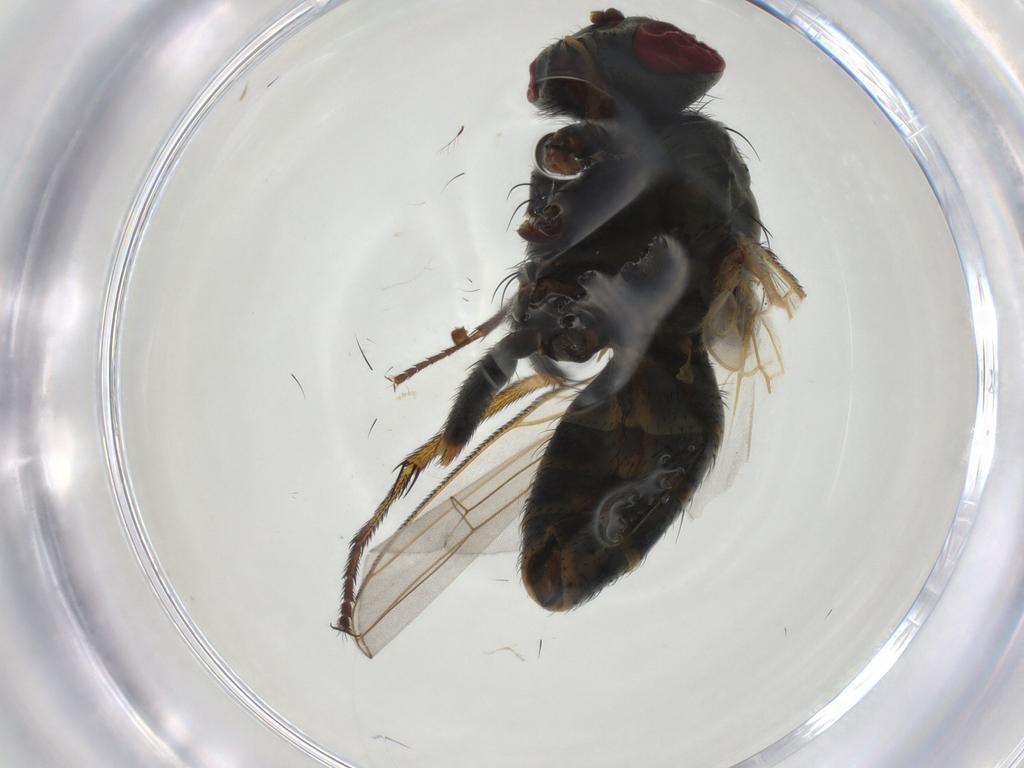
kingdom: Animalia
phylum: Arthropoda
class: Insecta
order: Diptera
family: Muscidae
